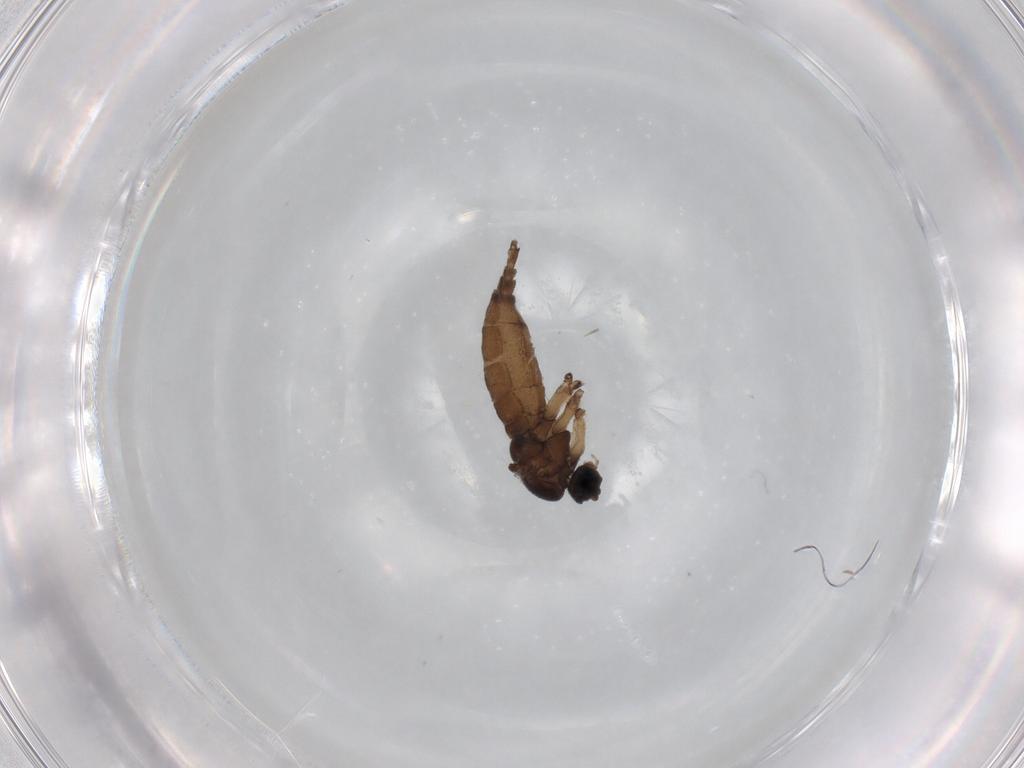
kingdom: Animalia
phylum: Arthropoda
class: Insecta
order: Diptera
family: Sciaridae
